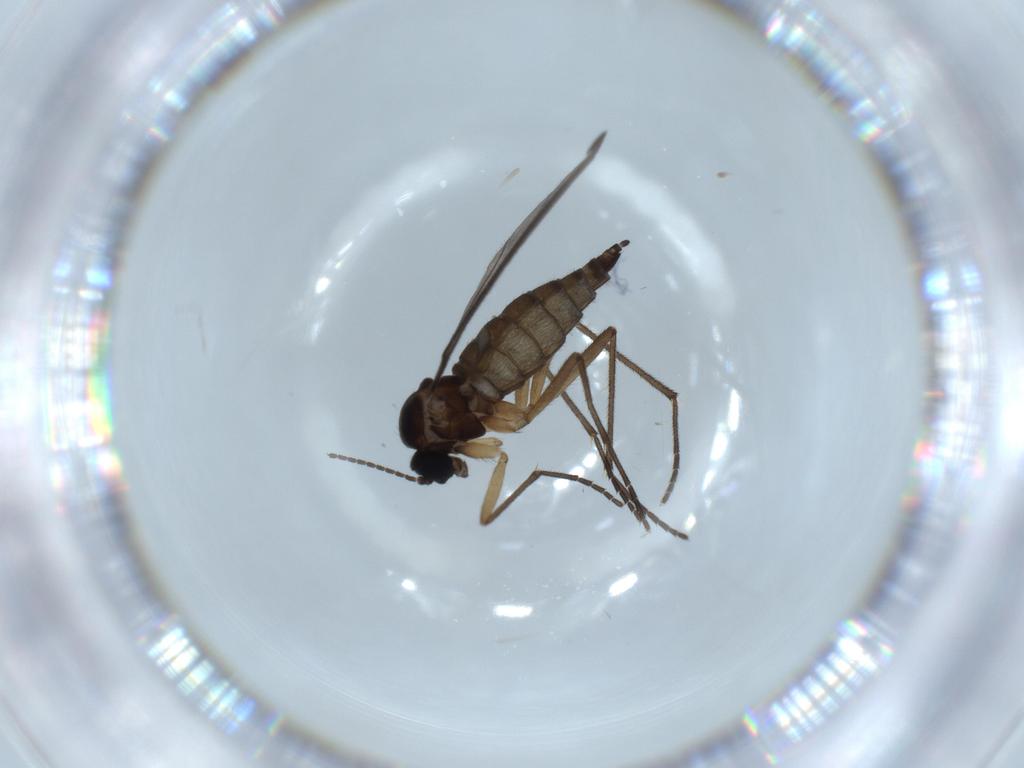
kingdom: Animalia
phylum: Arthropoda
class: Insecta
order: Diptera
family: Sciaridae
